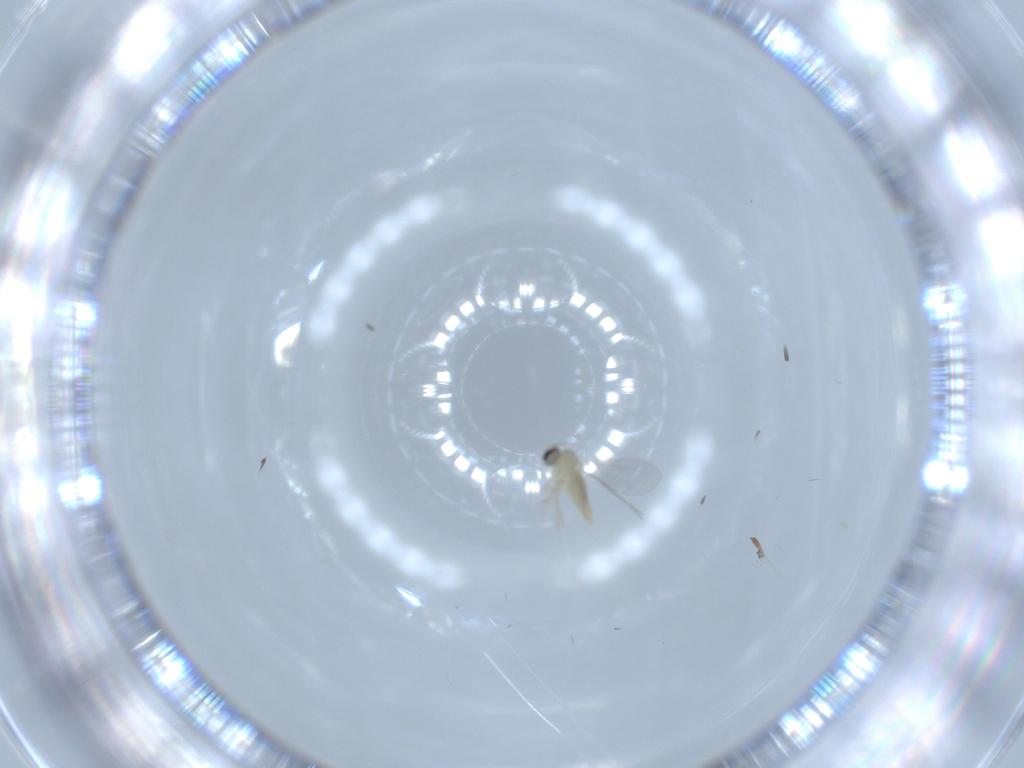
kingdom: Animalia
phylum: Arthropoda
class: Insecta
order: Diptera
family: Cecidomyiidae
